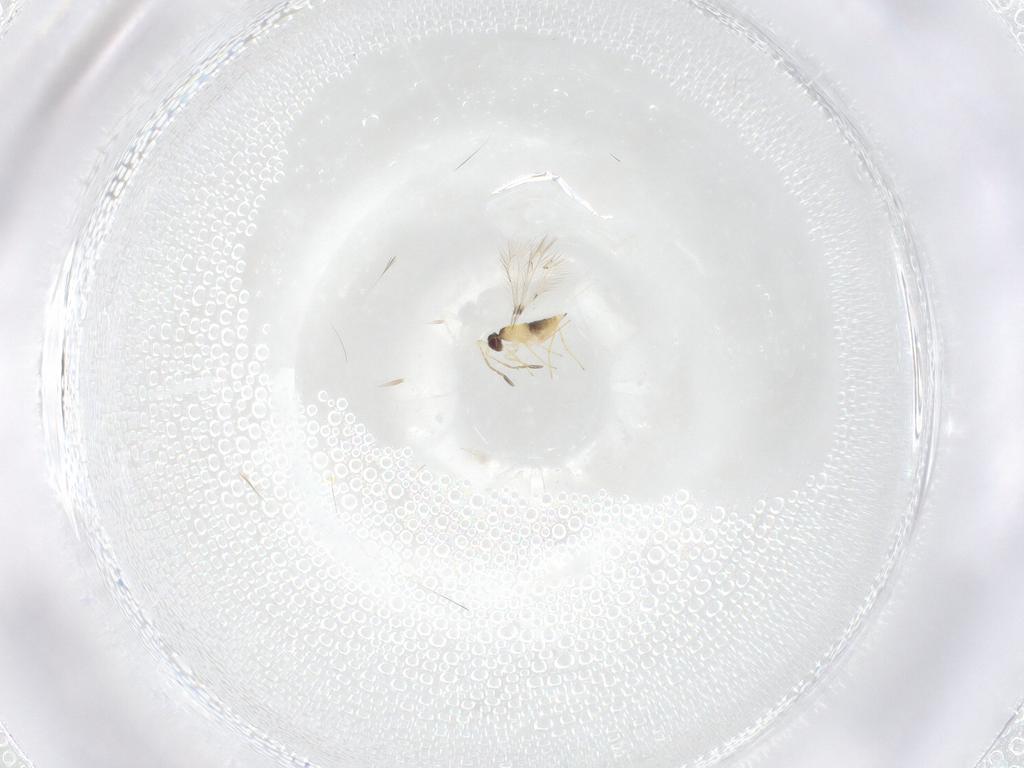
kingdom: Animalia
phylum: Arthropoda
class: Insecta
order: Hymenoptera
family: Mymaridae
